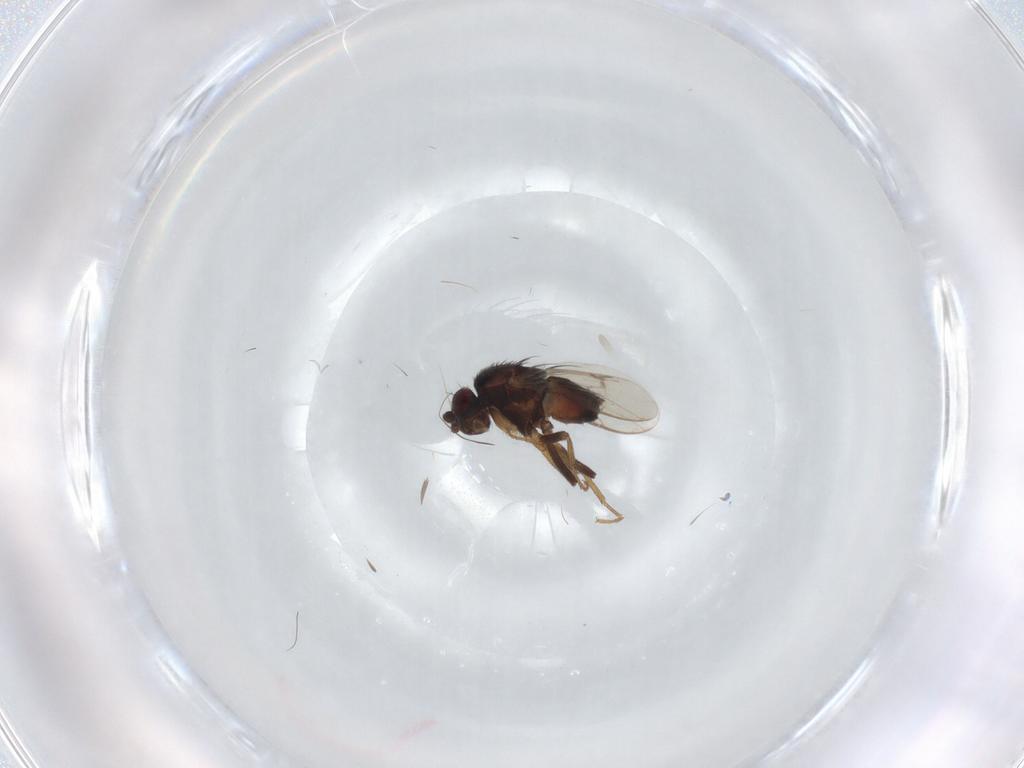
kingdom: Animalia
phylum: Arthropoda
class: Insecta
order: Diptera
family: Sphaeroceridae
